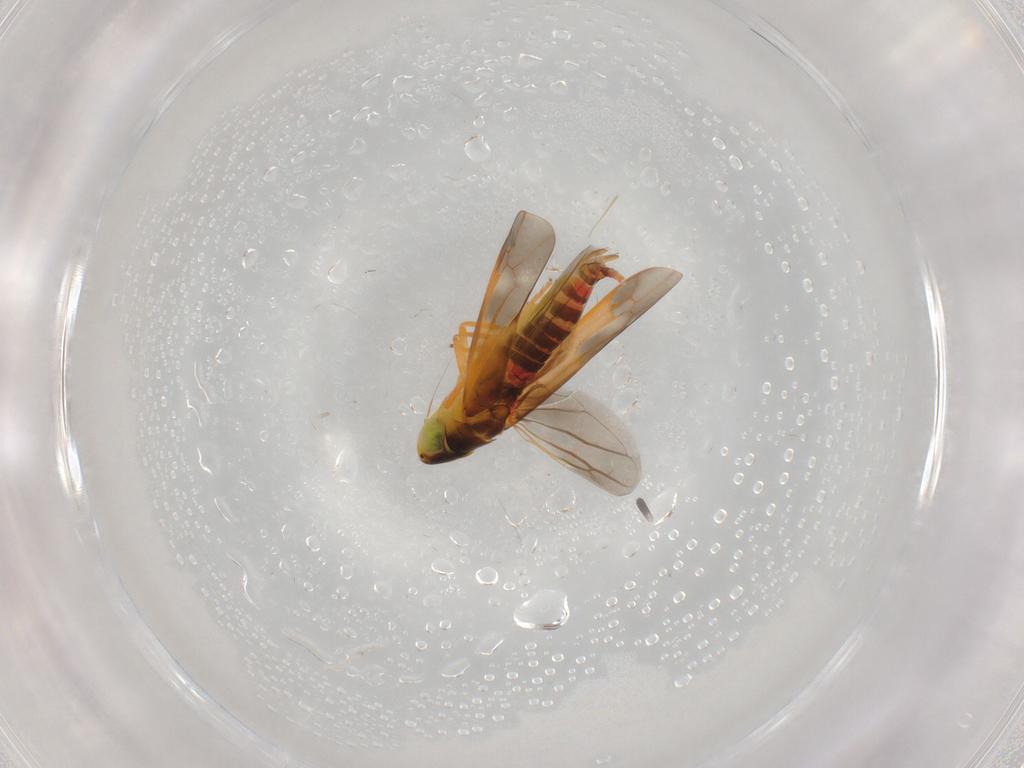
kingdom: Animalia
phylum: Arthropoda
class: Insecta
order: Hemiptera
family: Cicadellidae
